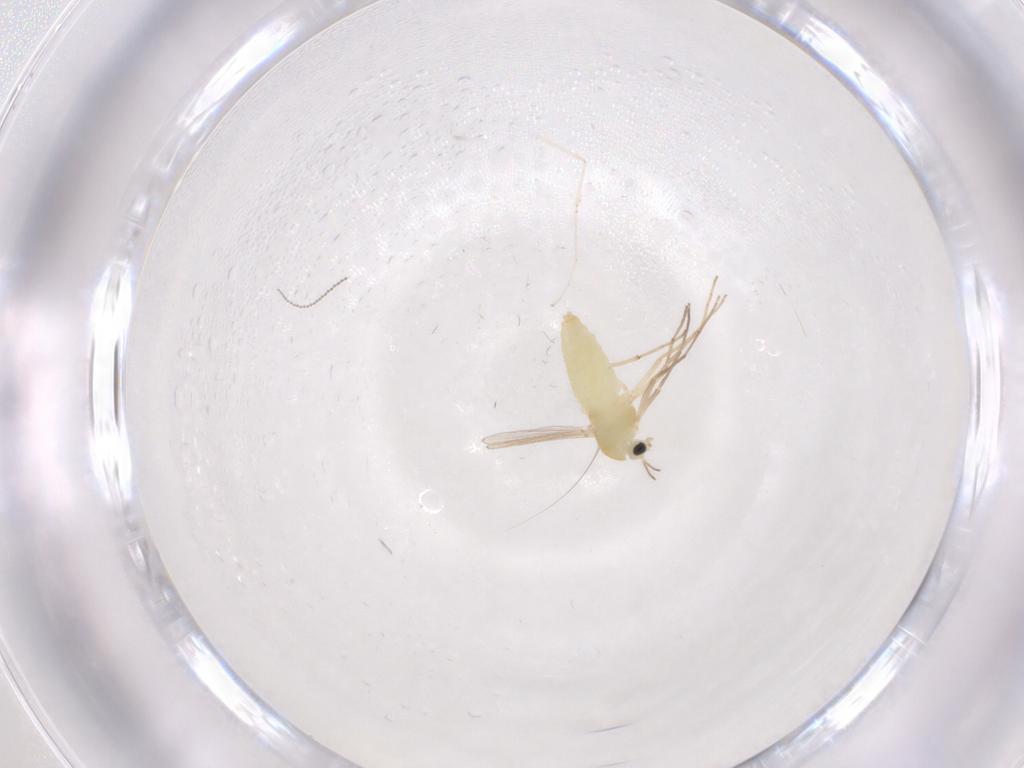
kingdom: Animalia
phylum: Arthropoda
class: Insecta
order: Diptera
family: Chironomidae
